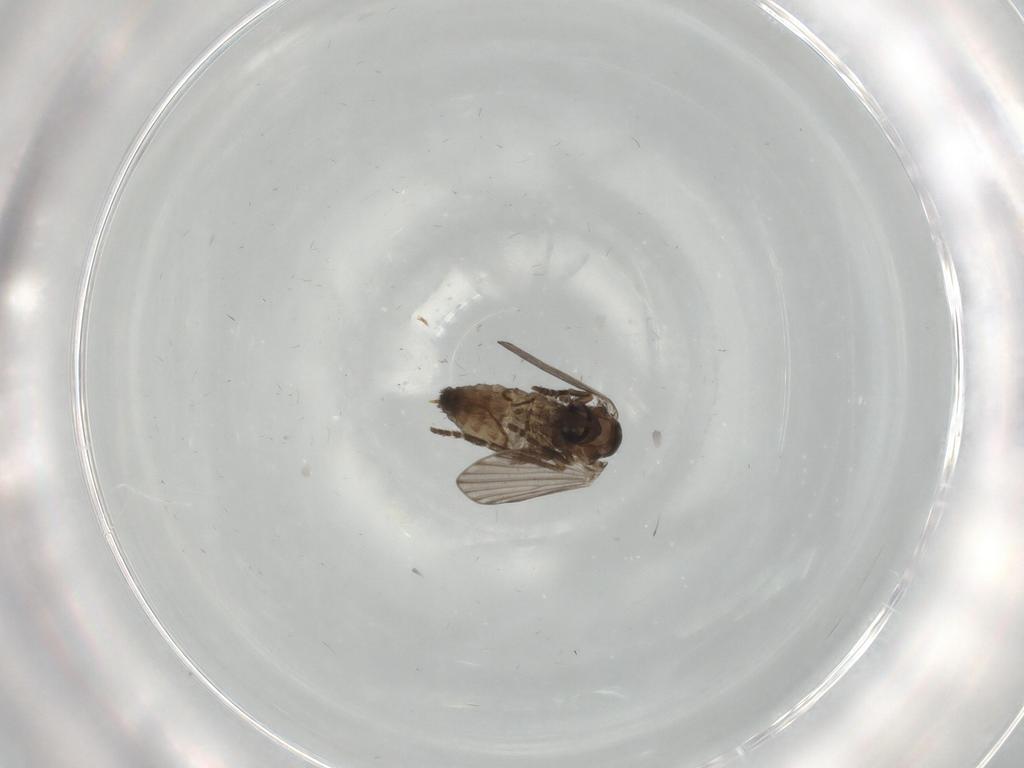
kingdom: Animalia
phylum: Arthropoda
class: Insecta
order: Diptera
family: Psychodidae
